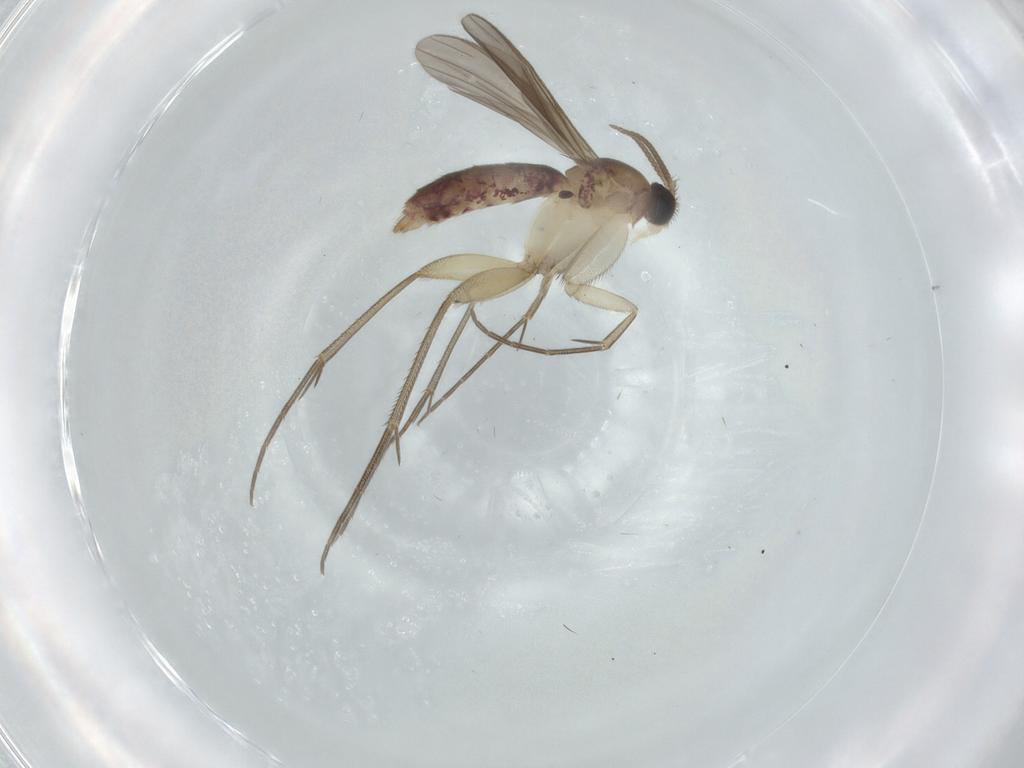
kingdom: Animalia
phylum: Arthropoda
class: Insecta
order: Diptera
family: Mycetophilidae
